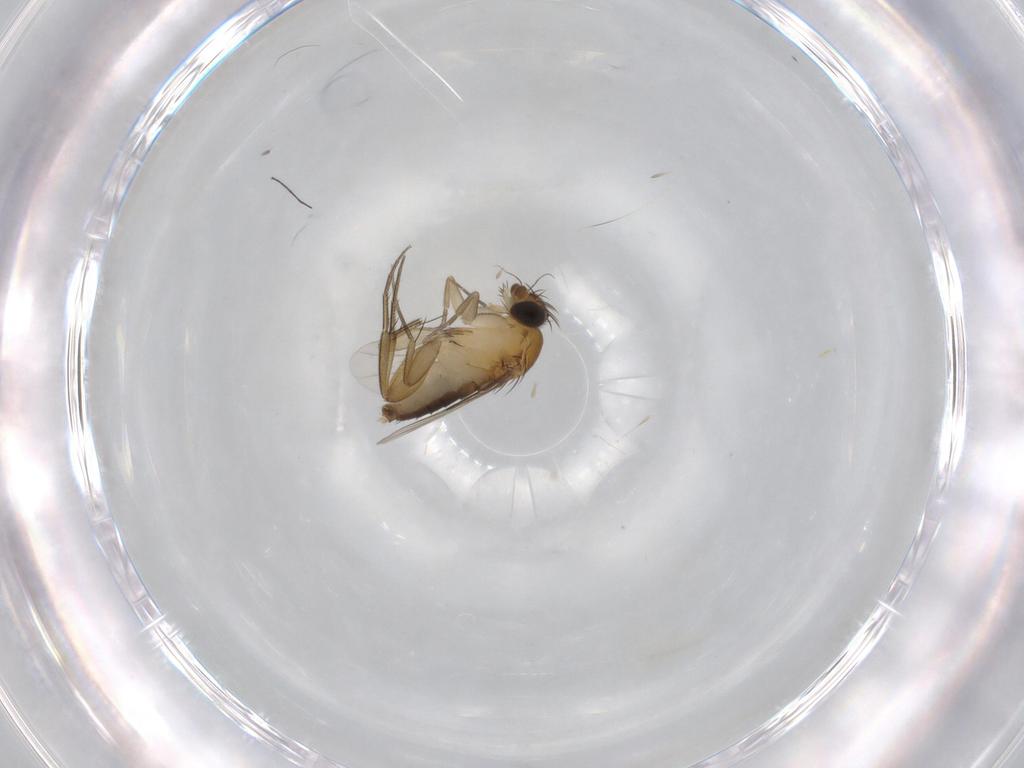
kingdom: Animalia
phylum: Arthropoda
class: Insecta
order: Diptera
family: Phoridae
